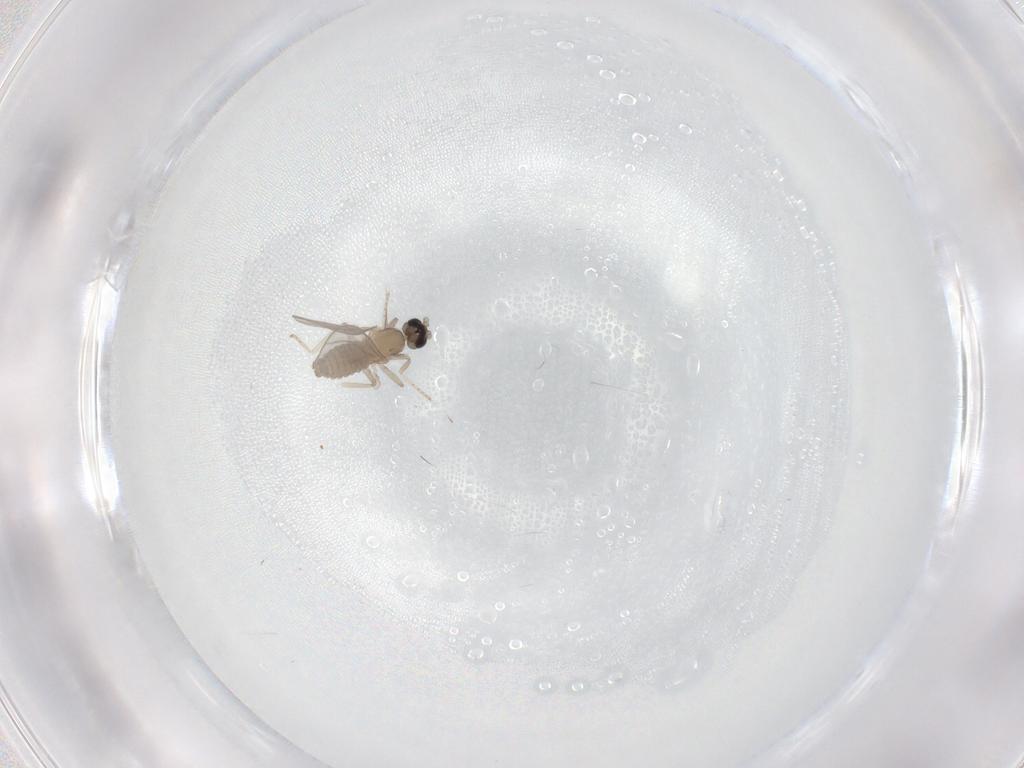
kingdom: Animalia
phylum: Arthropoda
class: Insecta
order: Diptera
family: Cecidomyiidae
